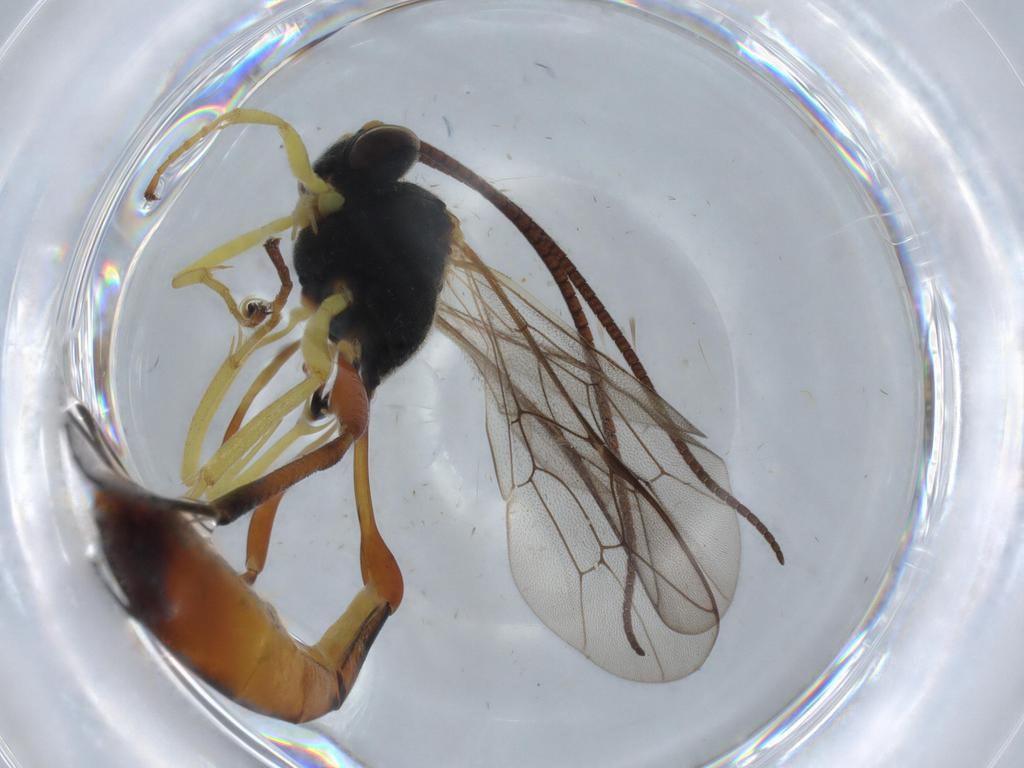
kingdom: Animalia
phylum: Arthropoda
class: Insecta
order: Hymenoptera
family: Ichneumonidae
